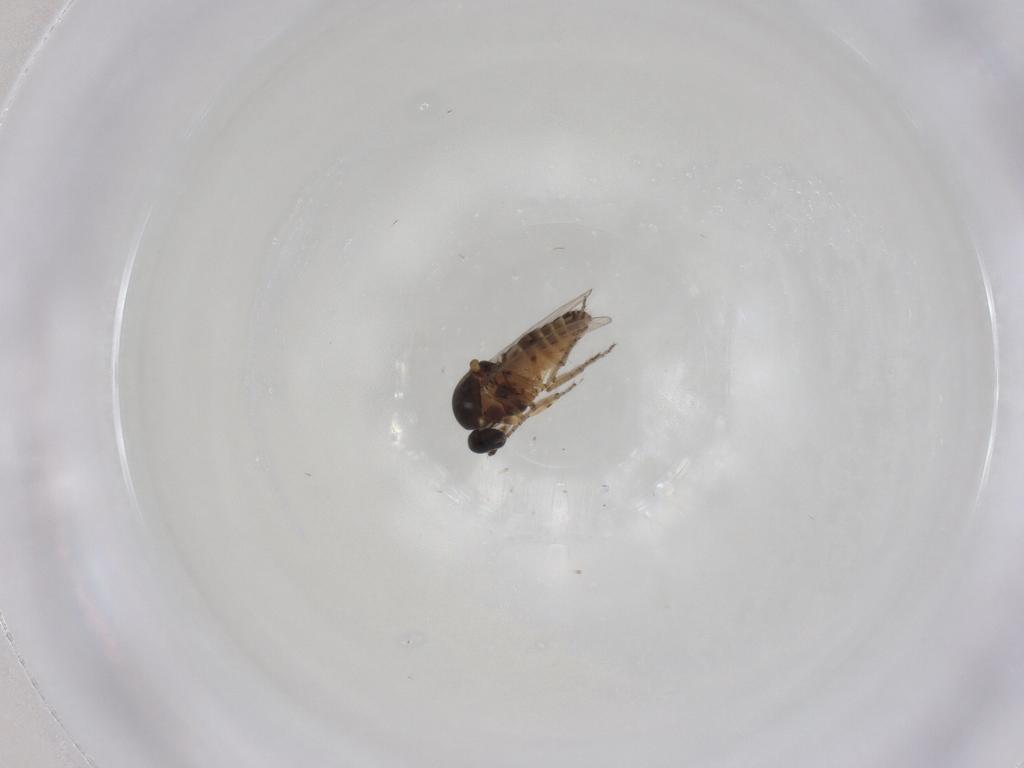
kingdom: Animalia
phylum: Arthropoda
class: Insecta
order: Diptera
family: Ceratopogonidae
